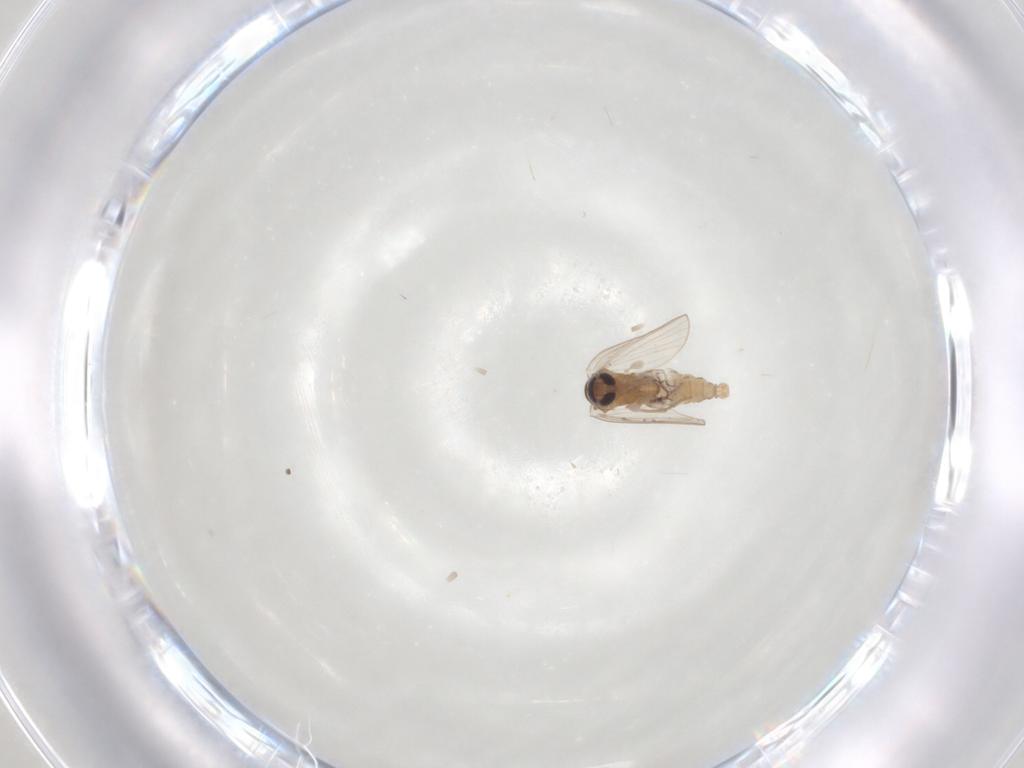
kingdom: Animalia
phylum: Arthropoda
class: Insecta
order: Diptera
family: Psychodidae
